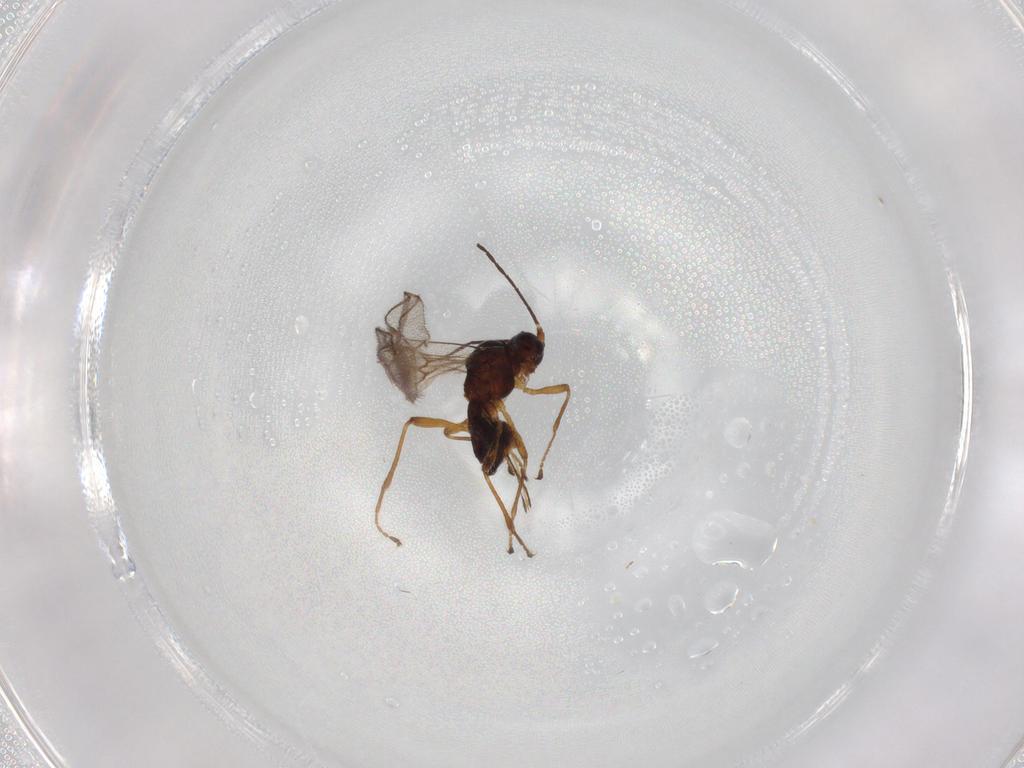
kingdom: Animalia
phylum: Arthropoda
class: Insecta
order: Hymenoptera
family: Braconidae
